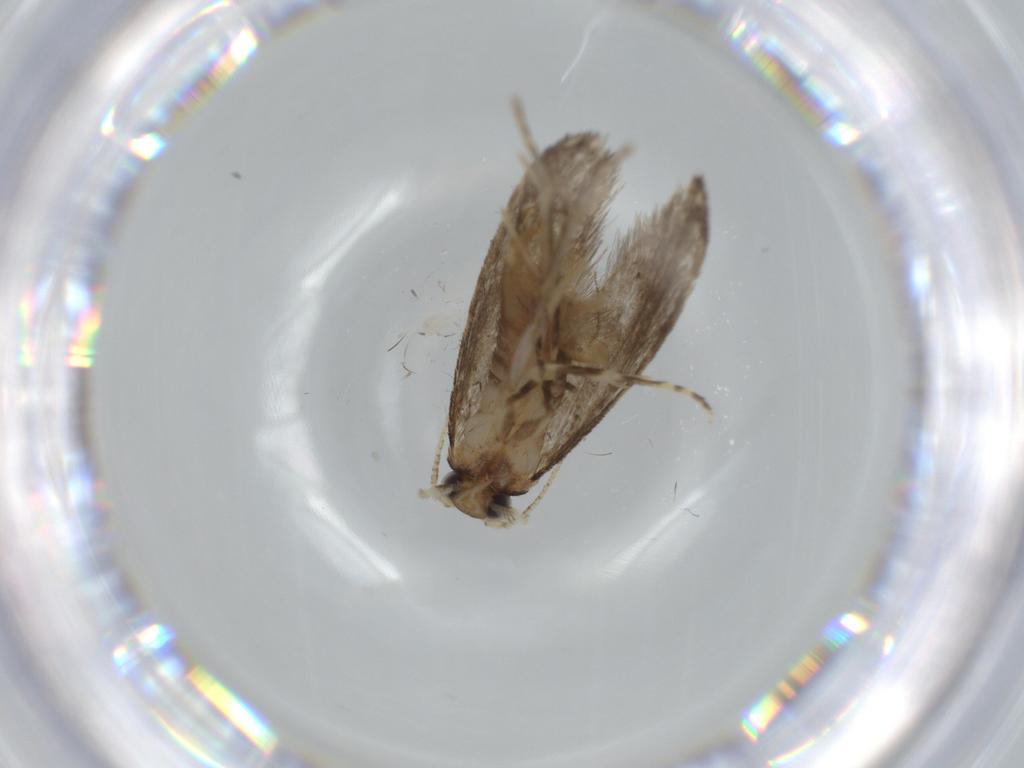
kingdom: Animalia
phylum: Arthropoda
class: Insecta
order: Lepidoptera
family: Tineidae
